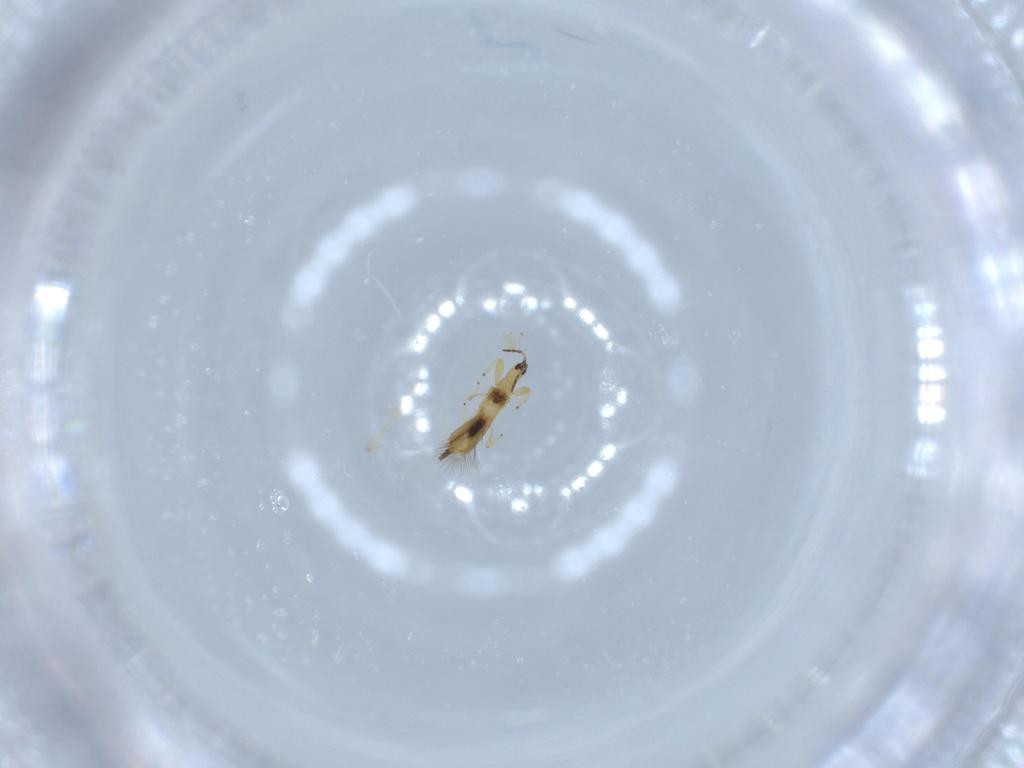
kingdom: Animalia
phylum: Arthropoda
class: Insecta
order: Thysanoptera
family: Phlaeothripidae
